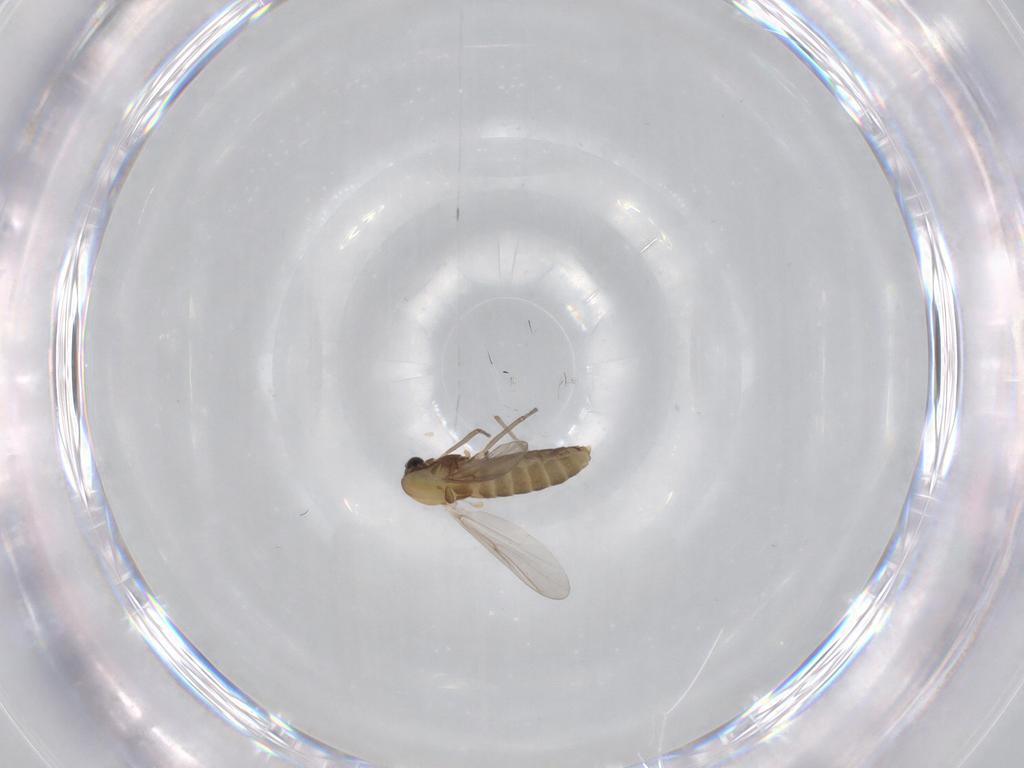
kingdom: Animalia
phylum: Arthropoda
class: Insecta
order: Diptera
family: Chironomidae
